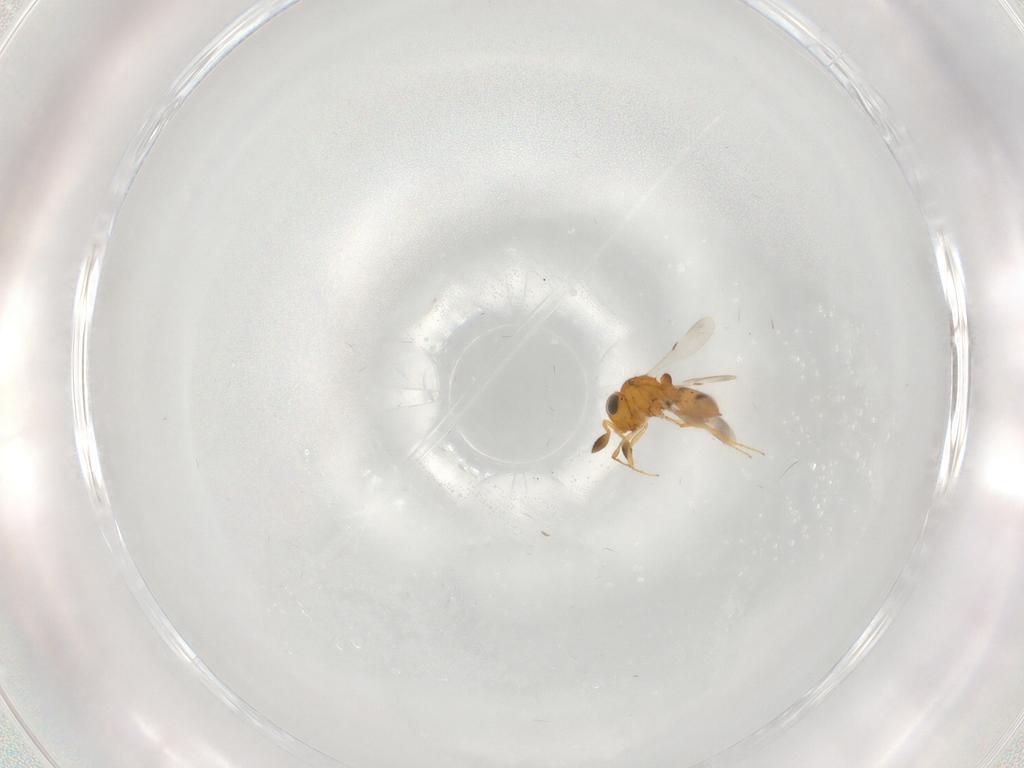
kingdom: Animalia
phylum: Arthropoda
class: Insecta
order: Hymenoptera
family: Scelionidae
